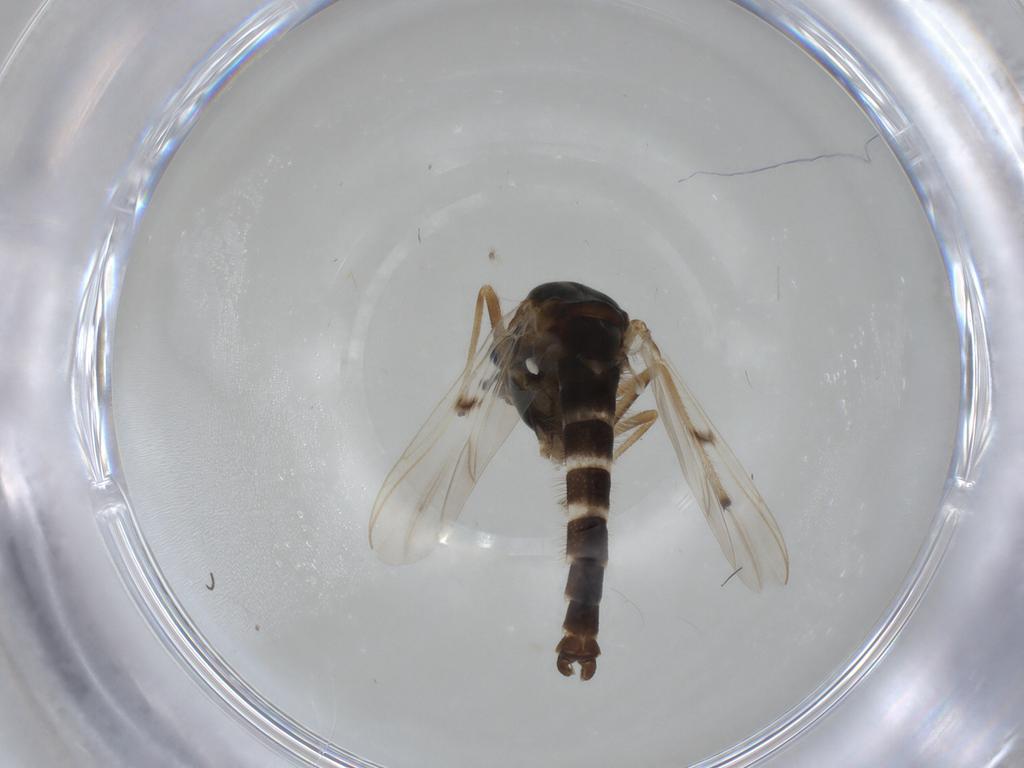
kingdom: Animalia
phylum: Arthropoda
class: Insecta
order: Diptera
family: Chironomidae
